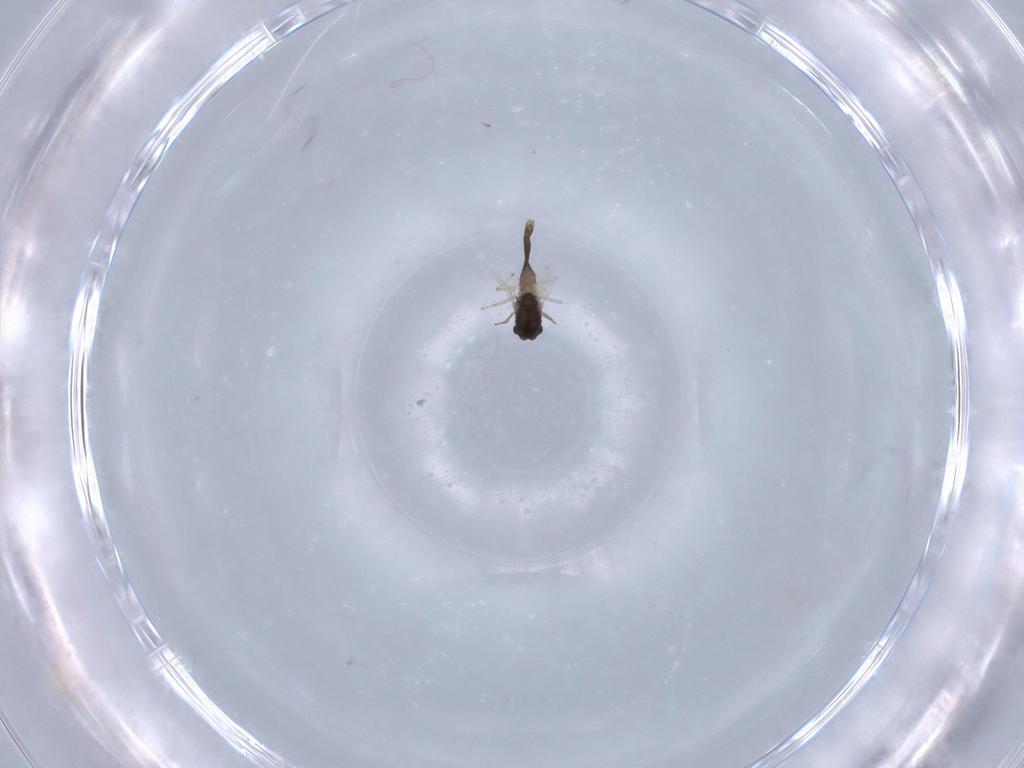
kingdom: Animalia
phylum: Arthropoda
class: Insecta
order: Diptera
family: Chironomidae
